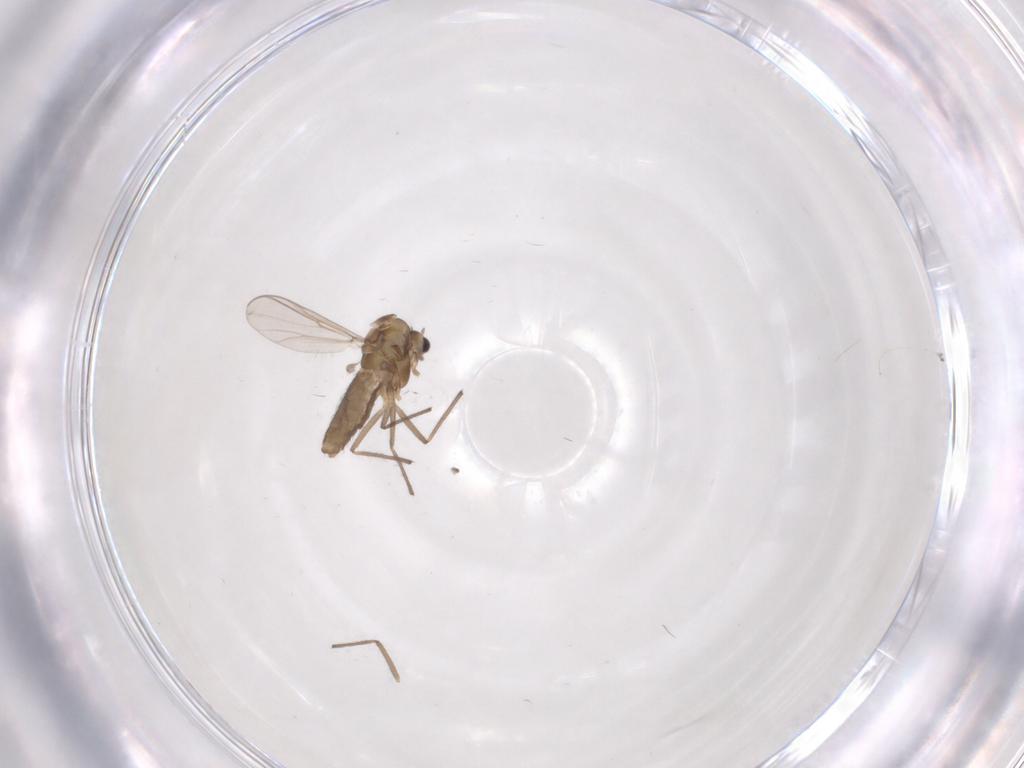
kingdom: Animalia
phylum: Arthropoda
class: Insecta
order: Diptera
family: Chironomidae
